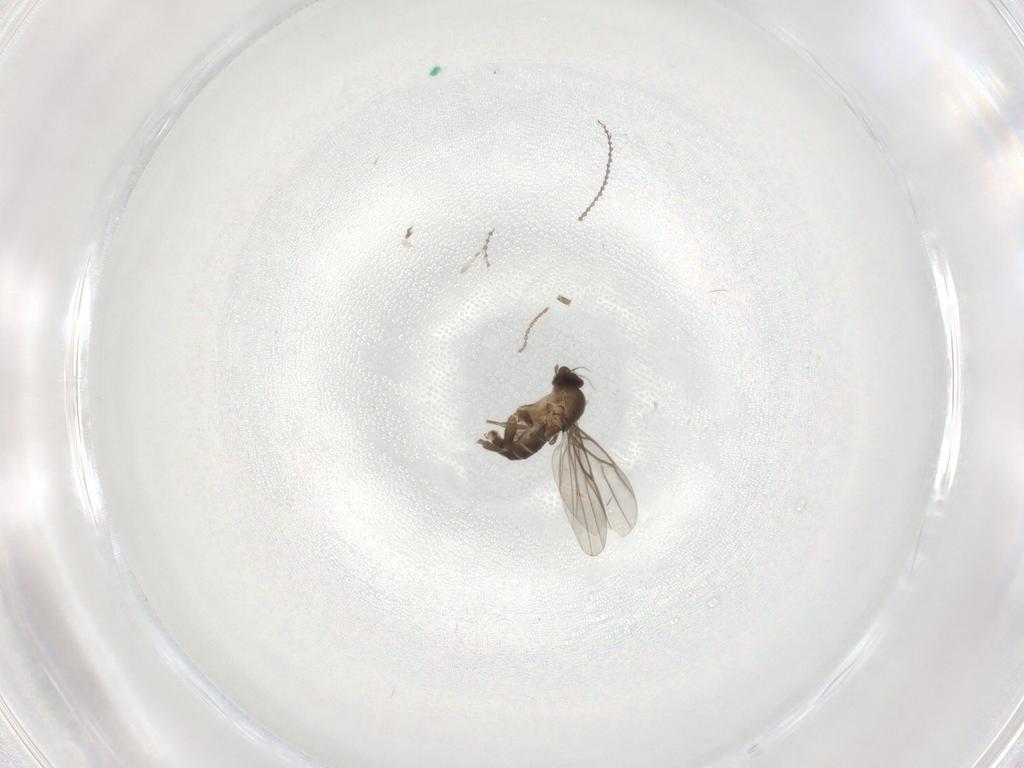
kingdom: Animalia
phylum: Arthropoda
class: Insecta
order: Diptera
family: Cecidomyiidae
